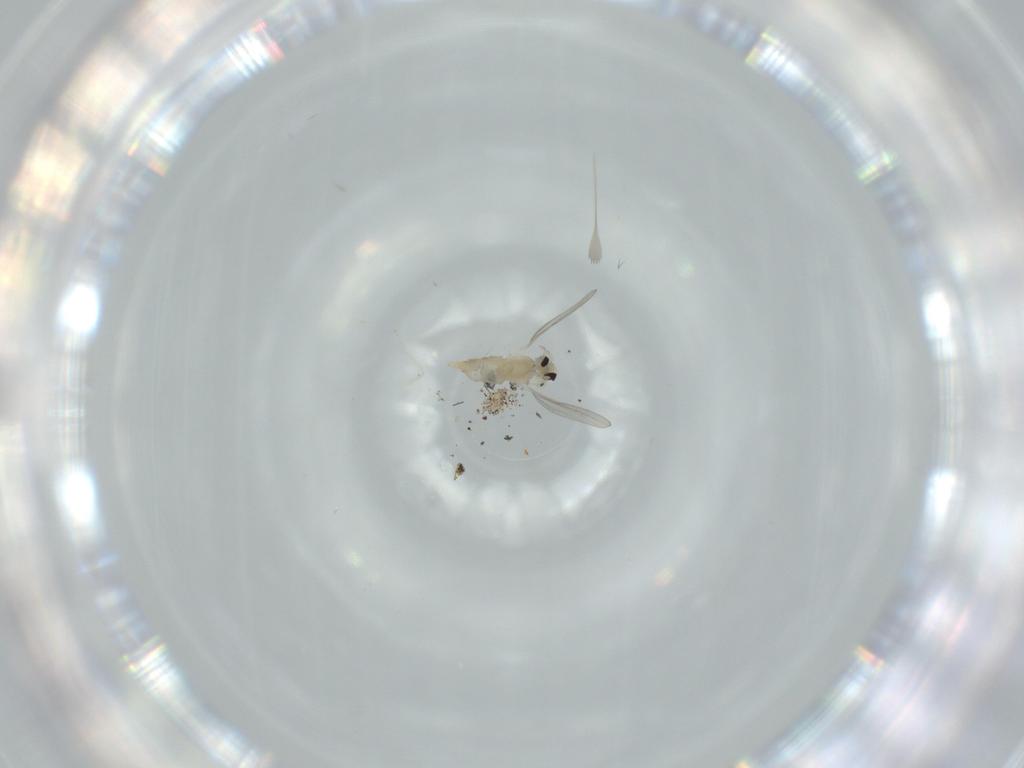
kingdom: Animalia
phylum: Arthropoda
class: Insecta
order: Diptera
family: Cecidomyiidae
